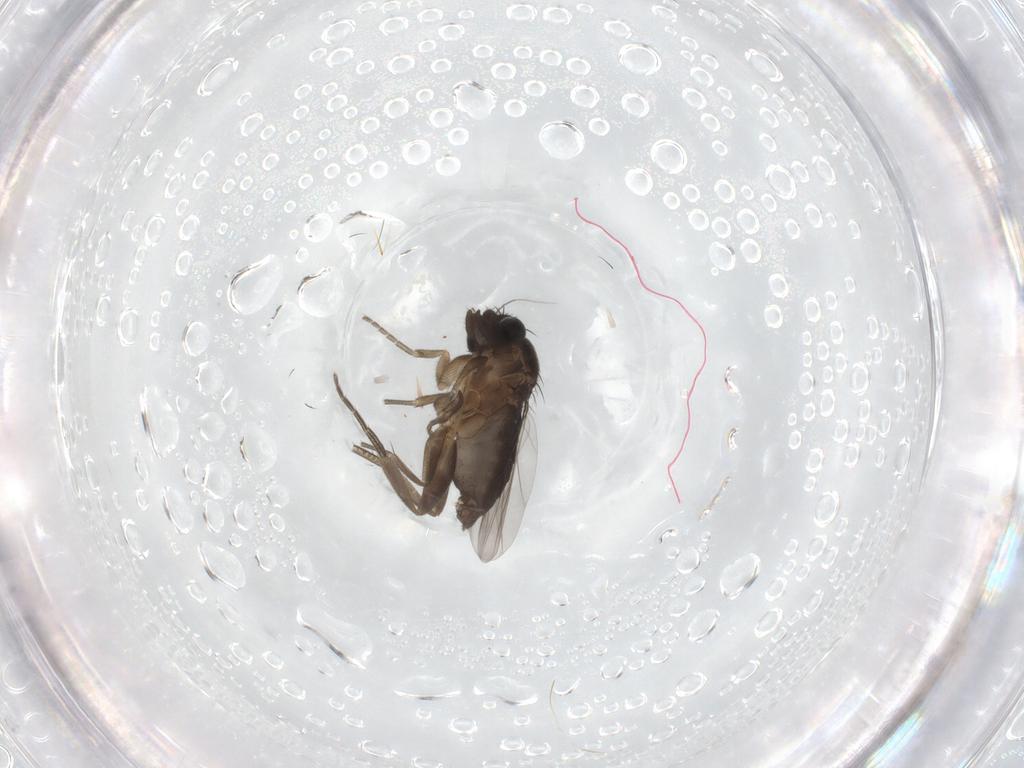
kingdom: Animalia
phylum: Arthropoda
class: Insecta
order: Diptera
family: Phoridae
